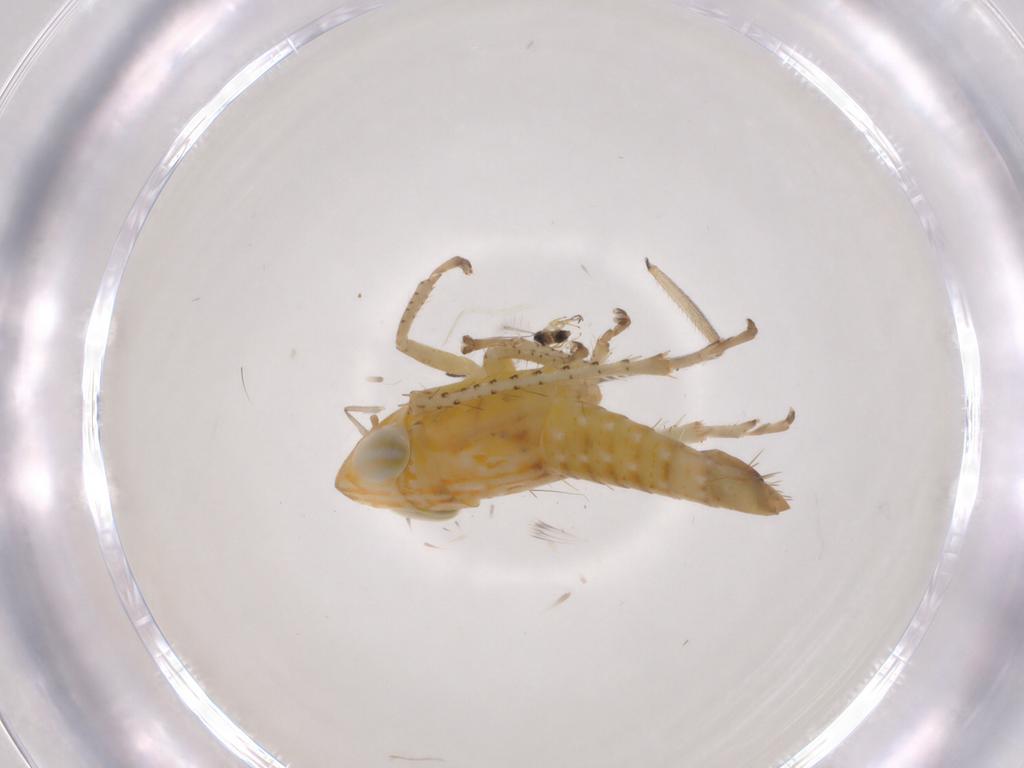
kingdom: Animalia
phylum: Arthropoda
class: Insecta
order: Hemiptera
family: Cicadellidae
